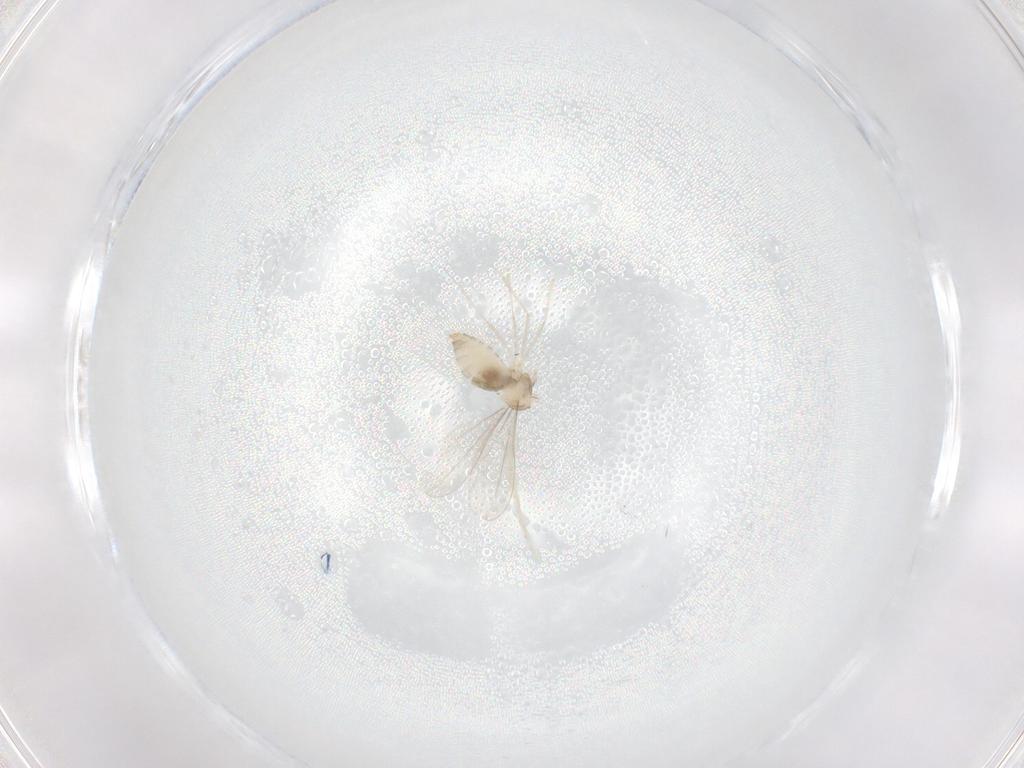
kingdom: Animalia
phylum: Arthropoda
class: Insecta
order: Diptera
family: Cecidomyiidae
